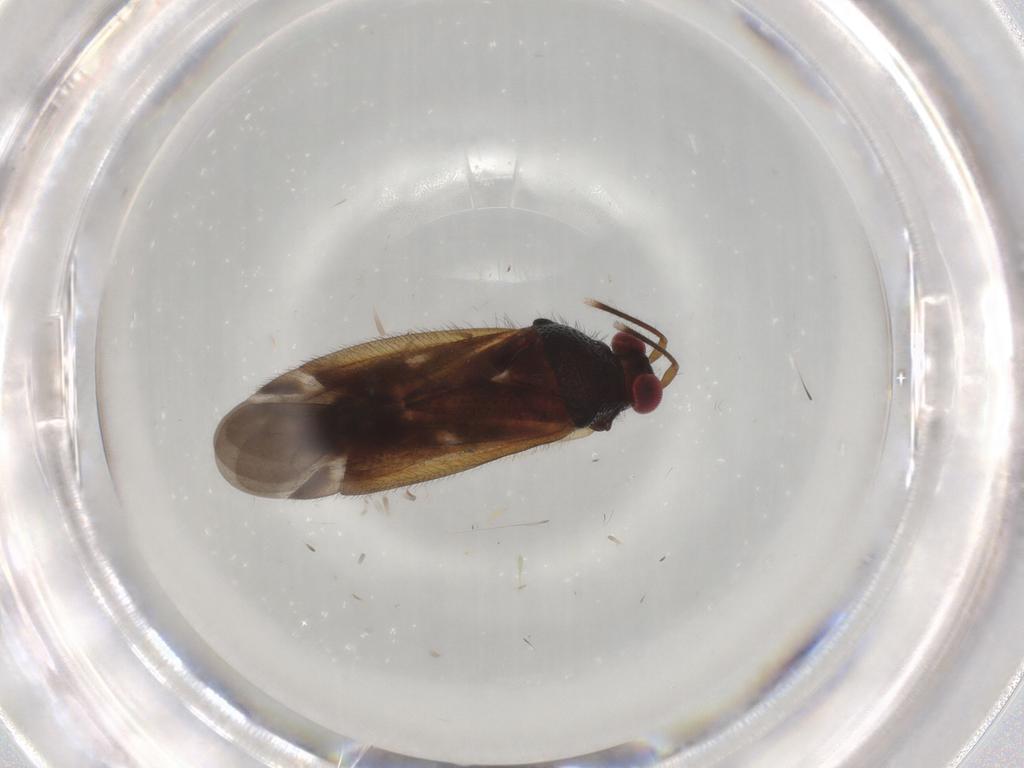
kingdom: Animalia
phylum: Arthropoda
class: Insecta
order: Hemiptera
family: Miridae
